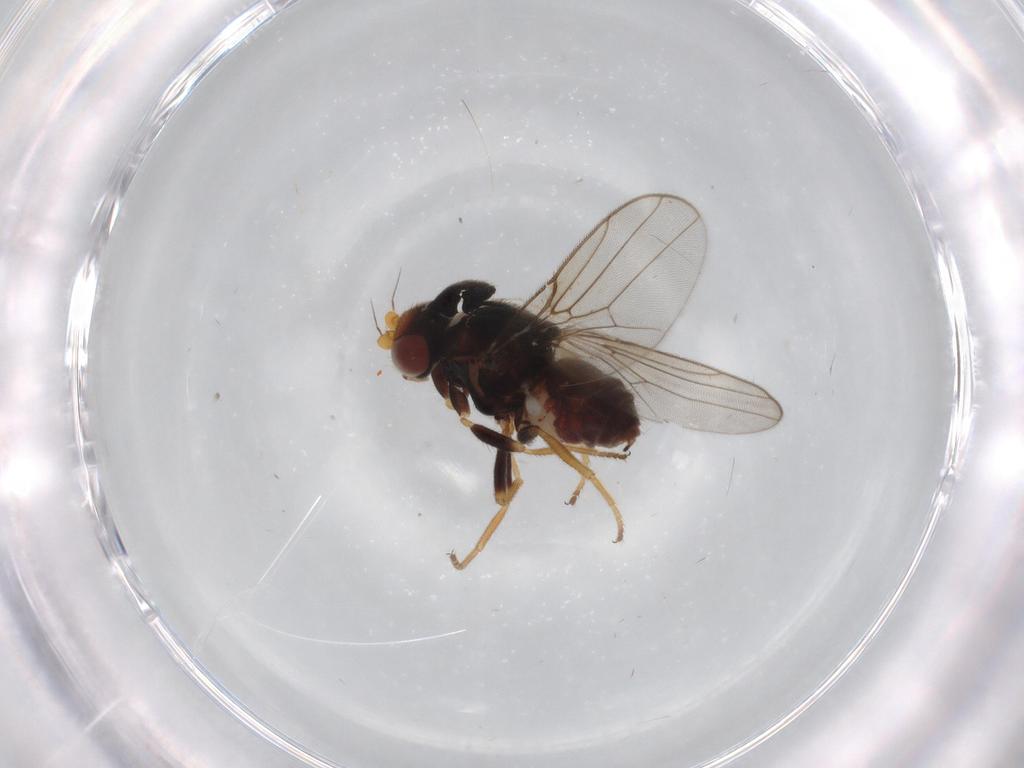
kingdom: Animalia
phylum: Arthropoda
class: Insecta
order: Diptera
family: Chloropidae
